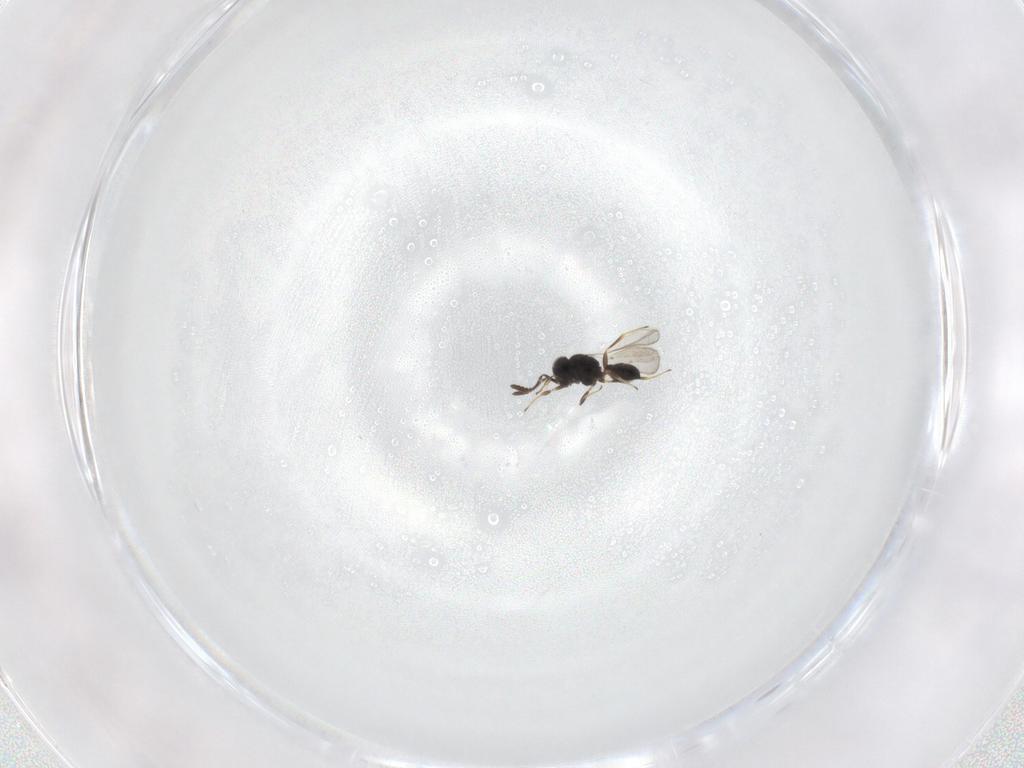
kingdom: Animalia
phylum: Arthropoda
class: Insecta
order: Hymenoptera
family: Scelionidae
